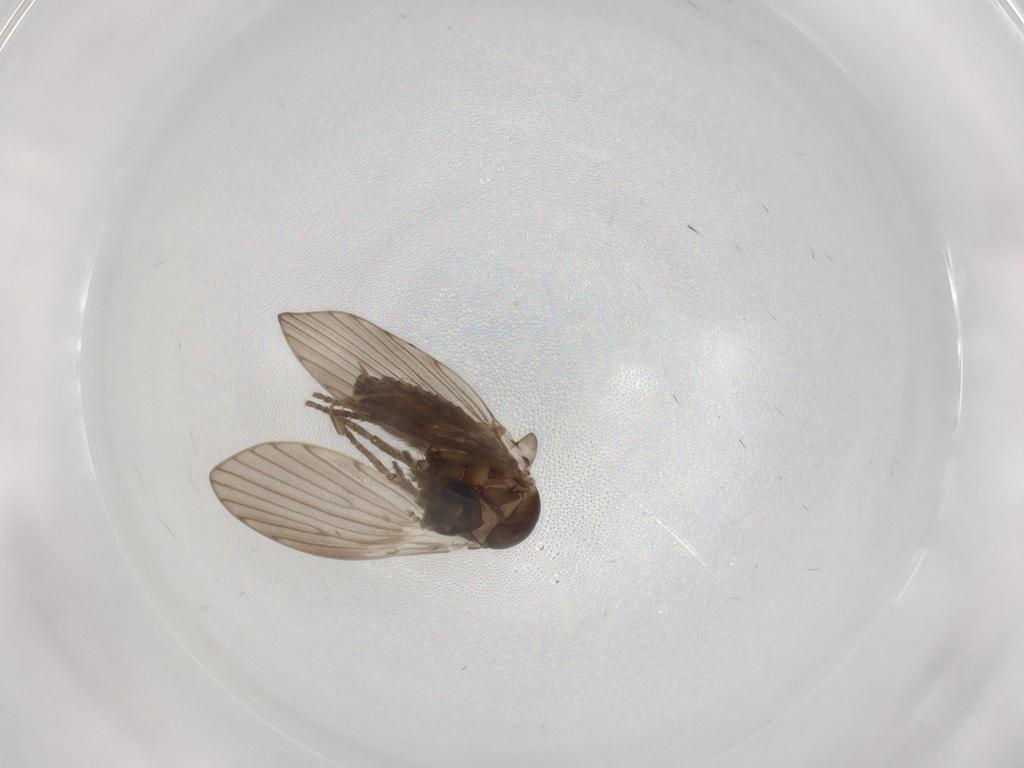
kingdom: Animalia
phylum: Arthropoda
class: Insecta
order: Diptera
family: Psychodidae
